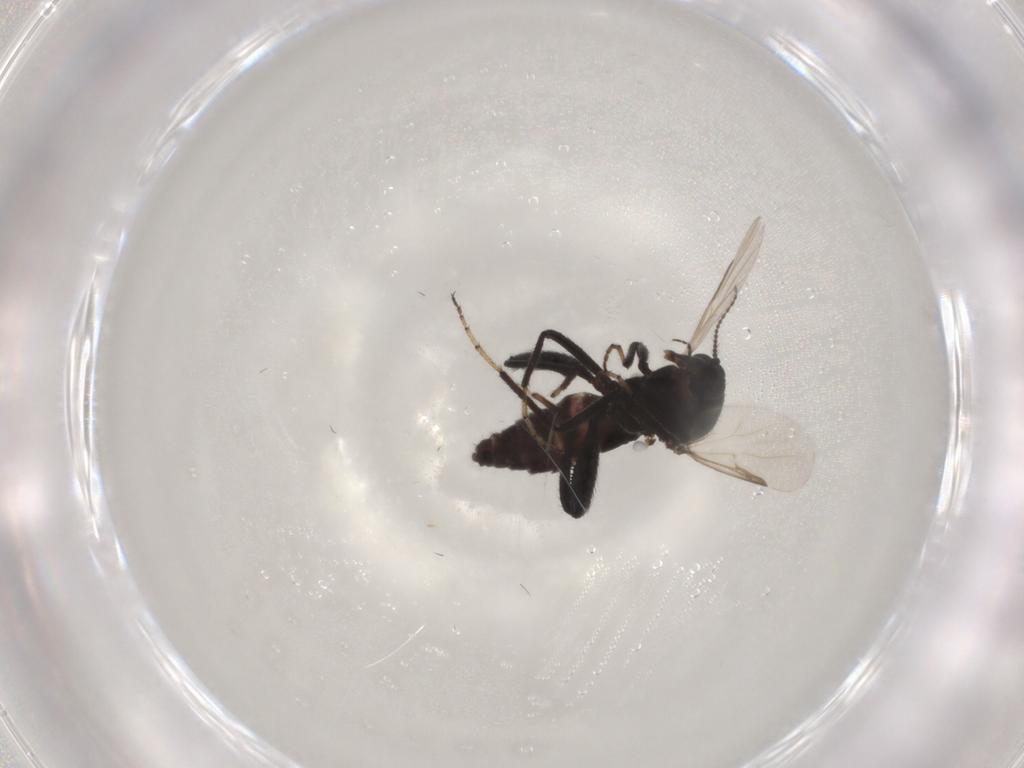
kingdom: Animalia
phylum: Arthropoda
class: Insecta
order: Diptera
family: Ceratopogonidae
